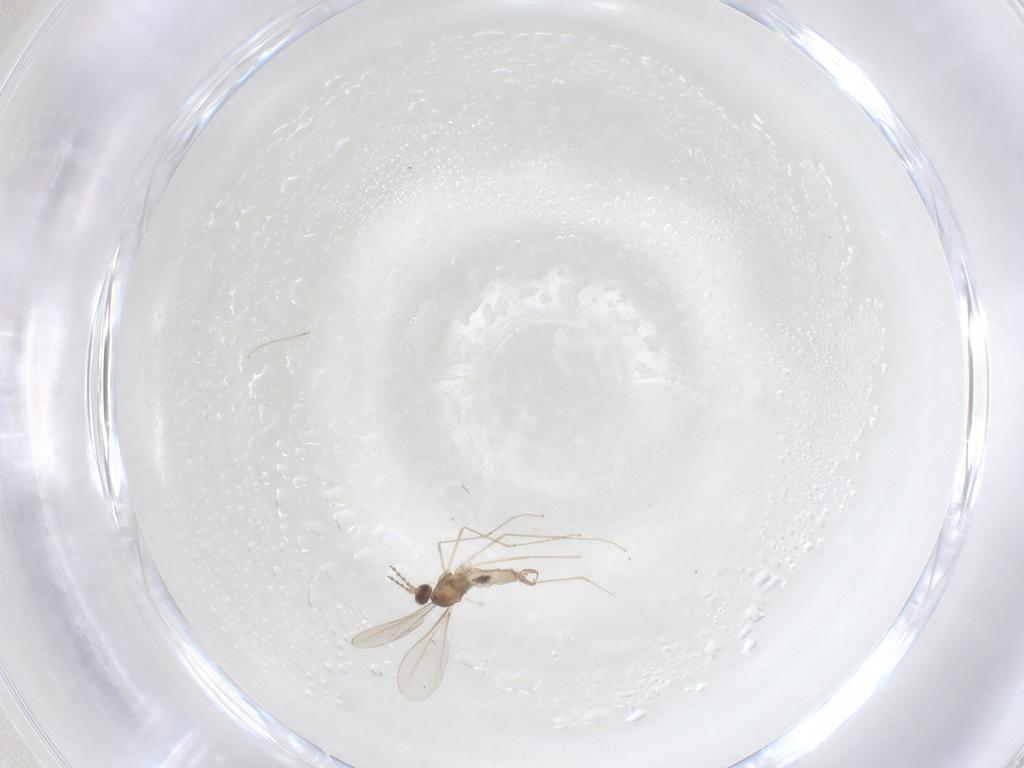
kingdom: Animalia
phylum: Arthropoda
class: Insecta
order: Diptera
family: Cecidomyiidae
